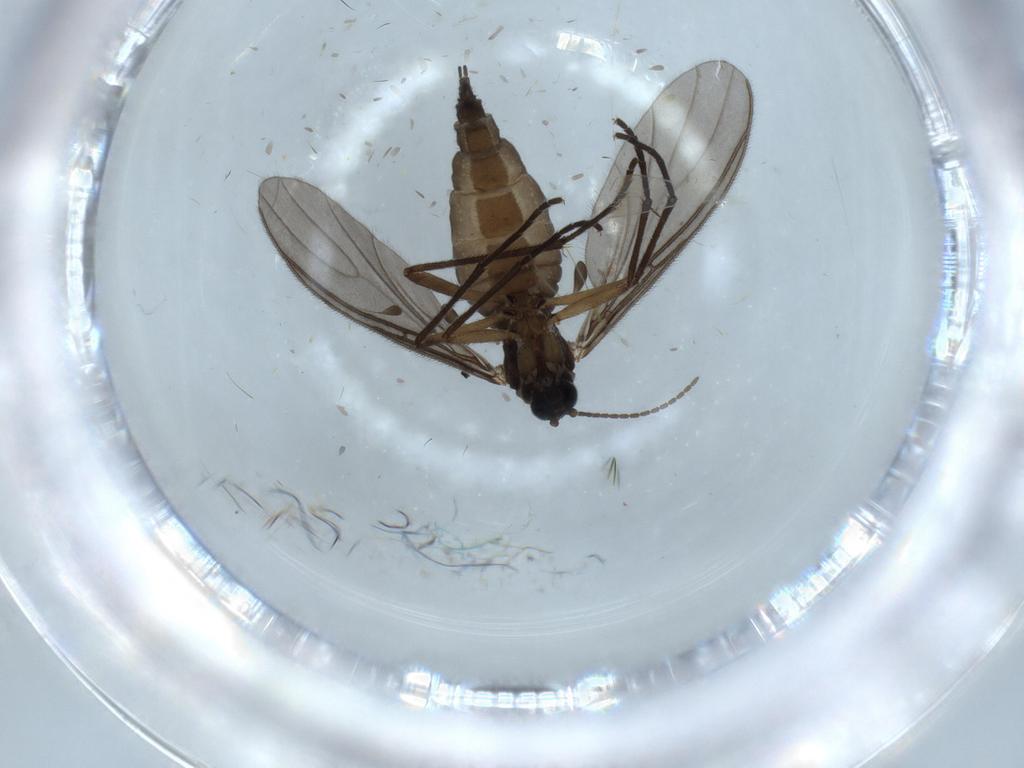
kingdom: Animalia
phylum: Arthropoda
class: Insecta
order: Diptera
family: Sciaridae
